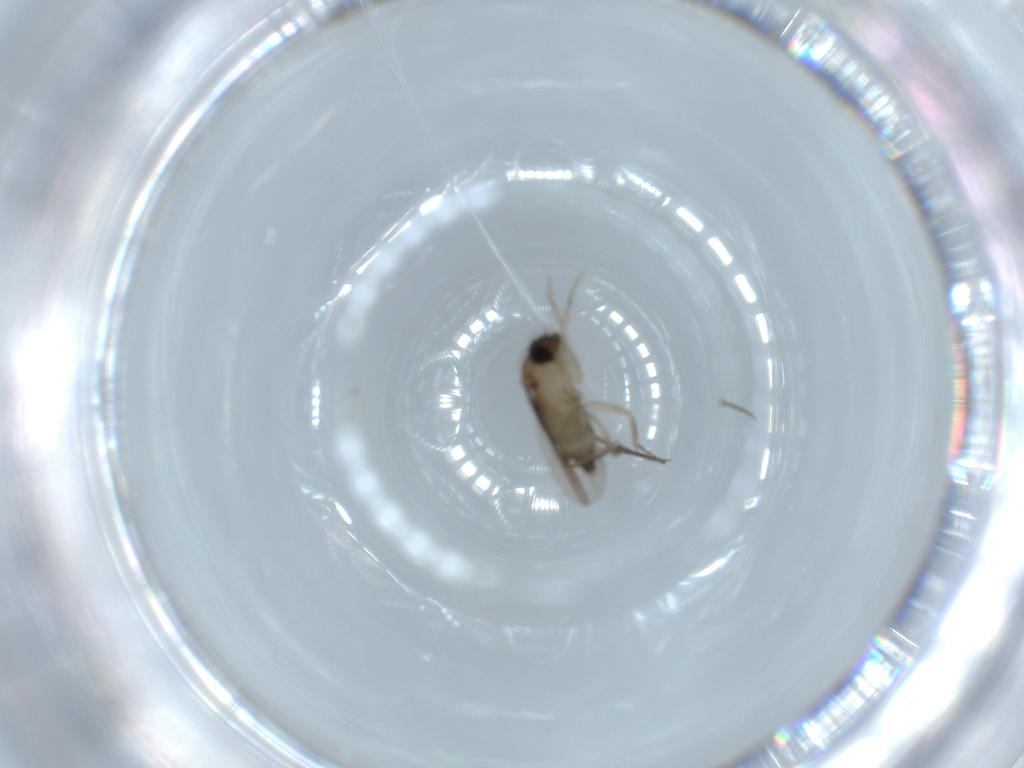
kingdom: Animalia
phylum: Arthropoda
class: Insecta
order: Diptera
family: Phoridae
